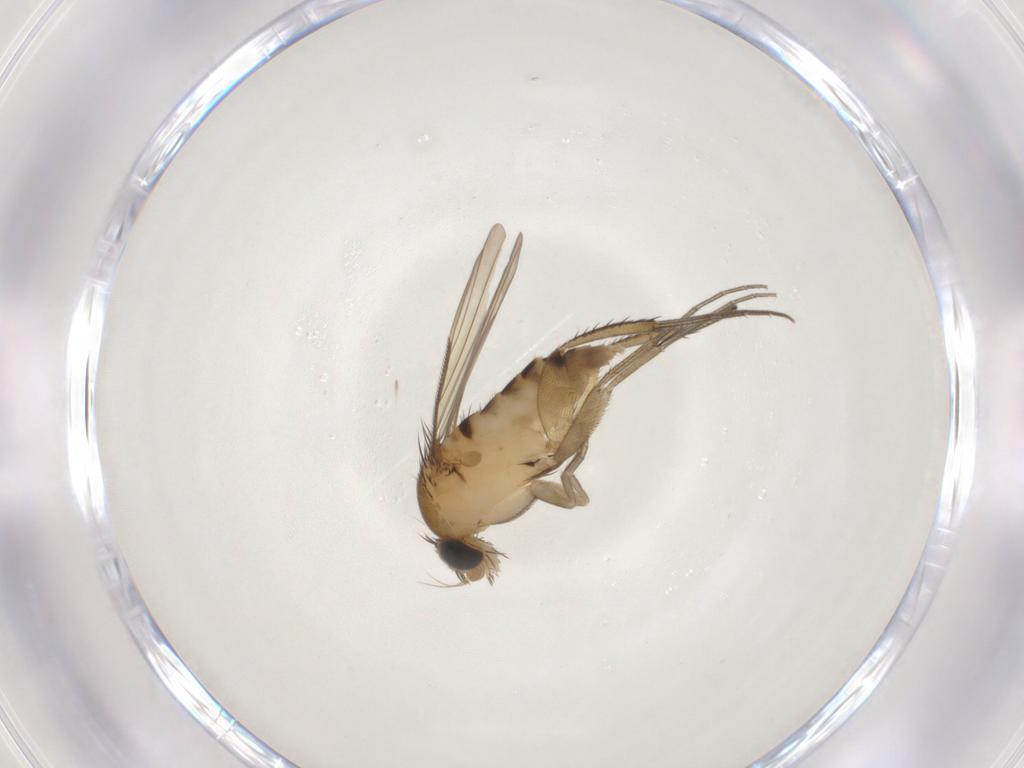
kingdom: Animalia
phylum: Arthropoda
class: Insecta
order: Diptera
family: Phoridae
